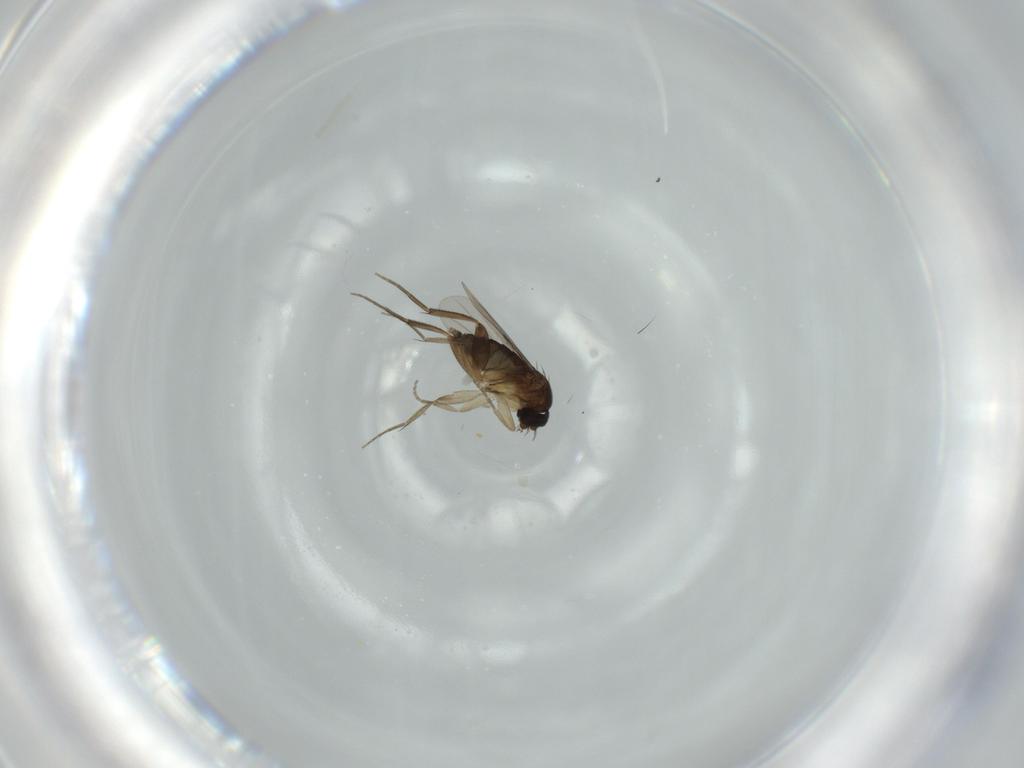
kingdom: Animalia
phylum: Arthropoda
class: Insecta
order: Diptera
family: Phoridae
